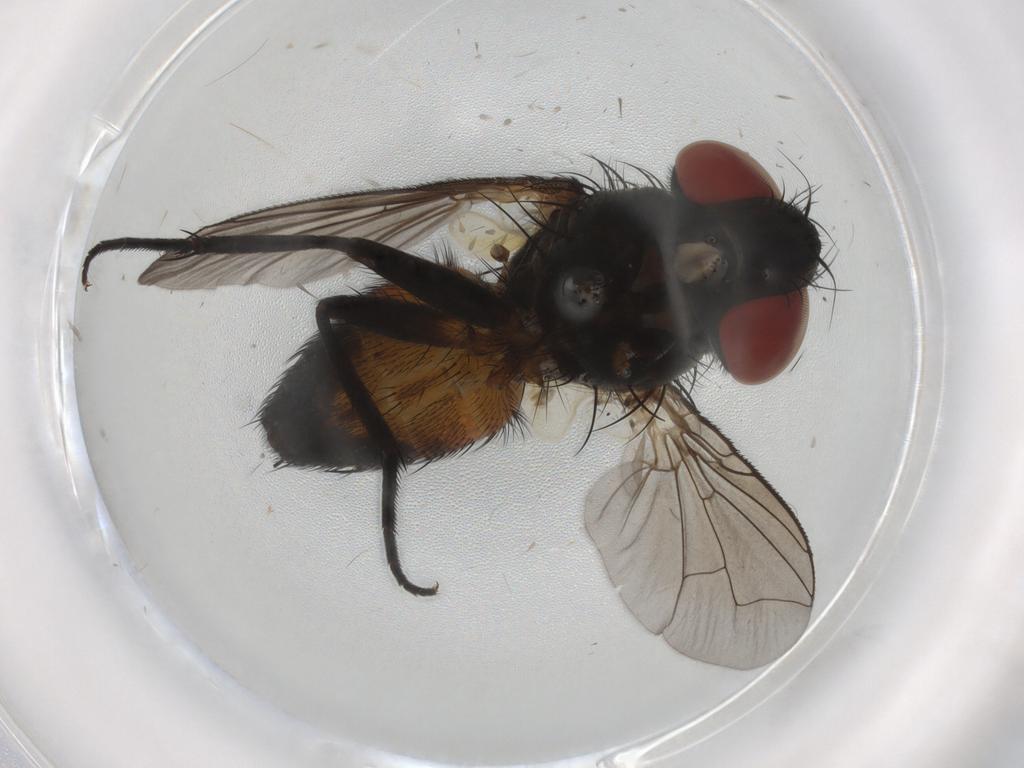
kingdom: Animalia
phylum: Arthropoda
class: Insecta
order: Diptera
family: Sarcophagidae
